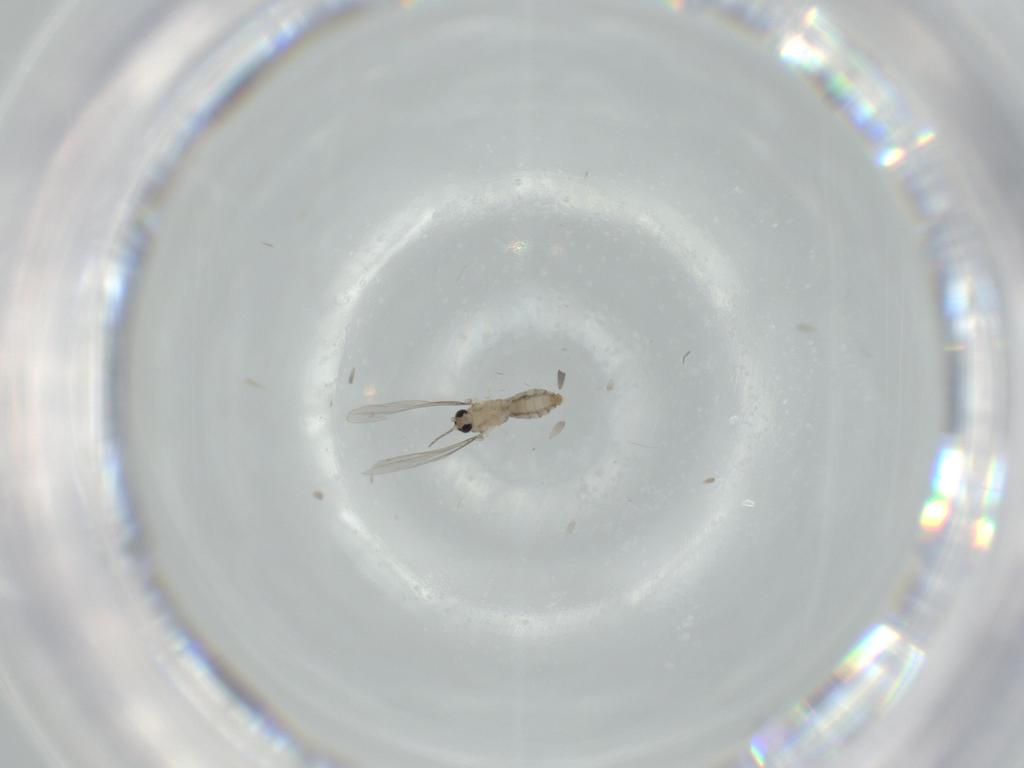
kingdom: Animalia
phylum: Arthropoda
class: Insecta
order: Diptera
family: Cecidomyiidae
